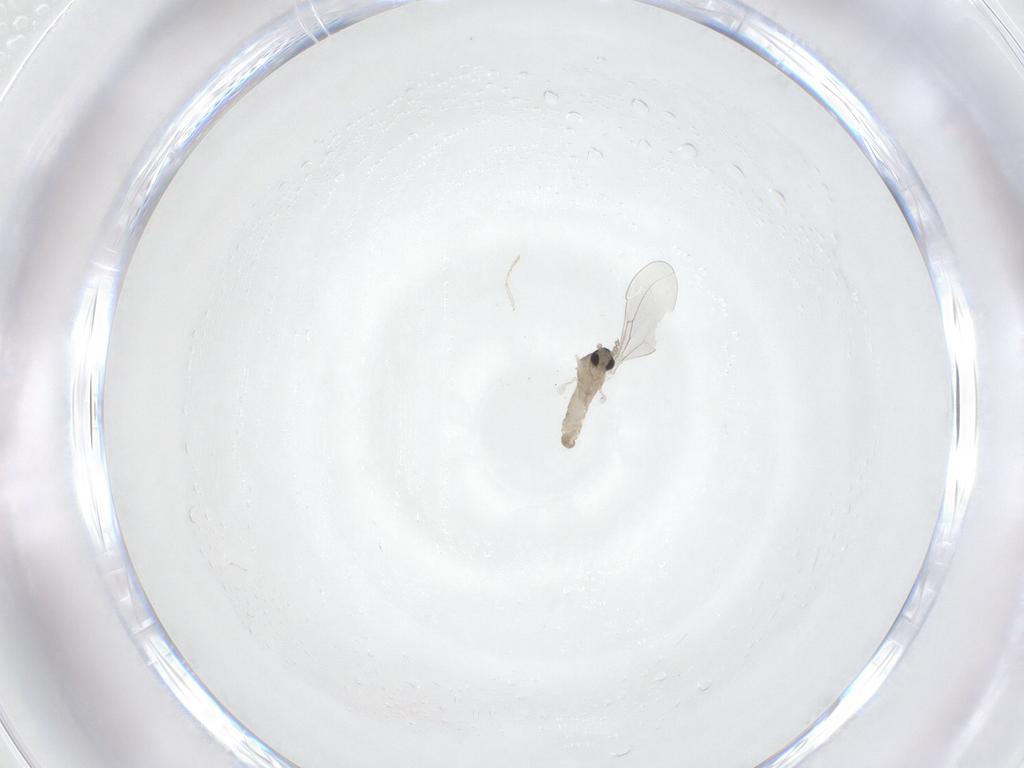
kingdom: Animalia
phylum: Arthropoda
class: Insecta
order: Diptera
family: Cecidomyiidae
